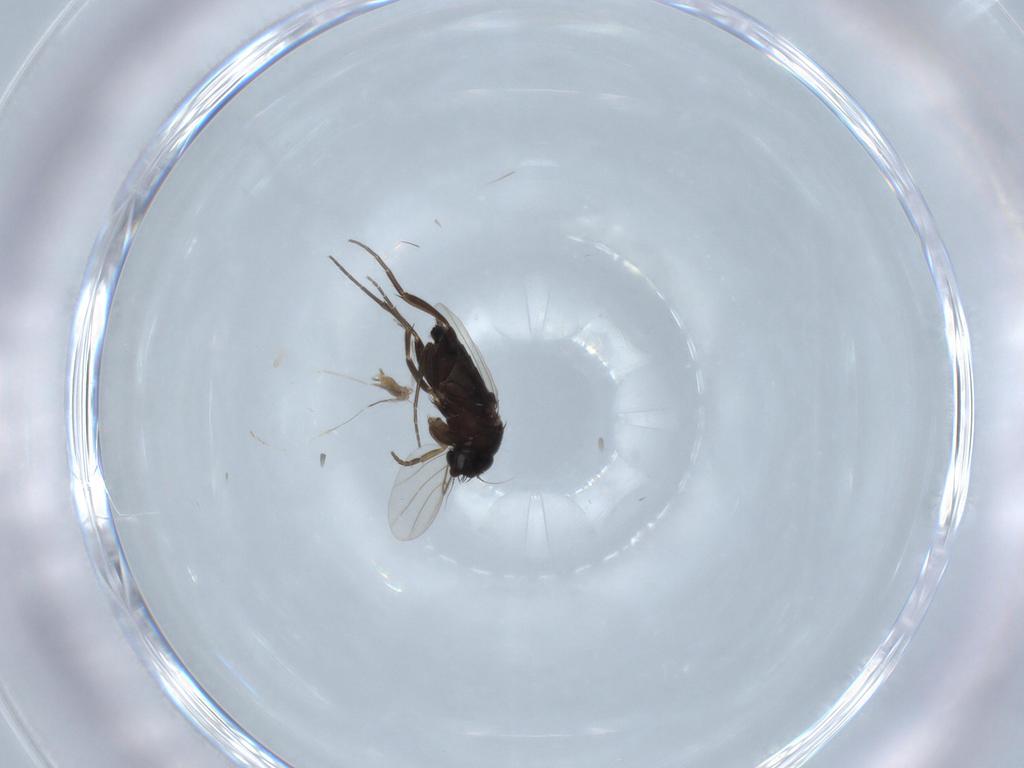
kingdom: Animalia
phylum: Arthropoda
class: Insecta
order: Diptera
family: Phoridae
